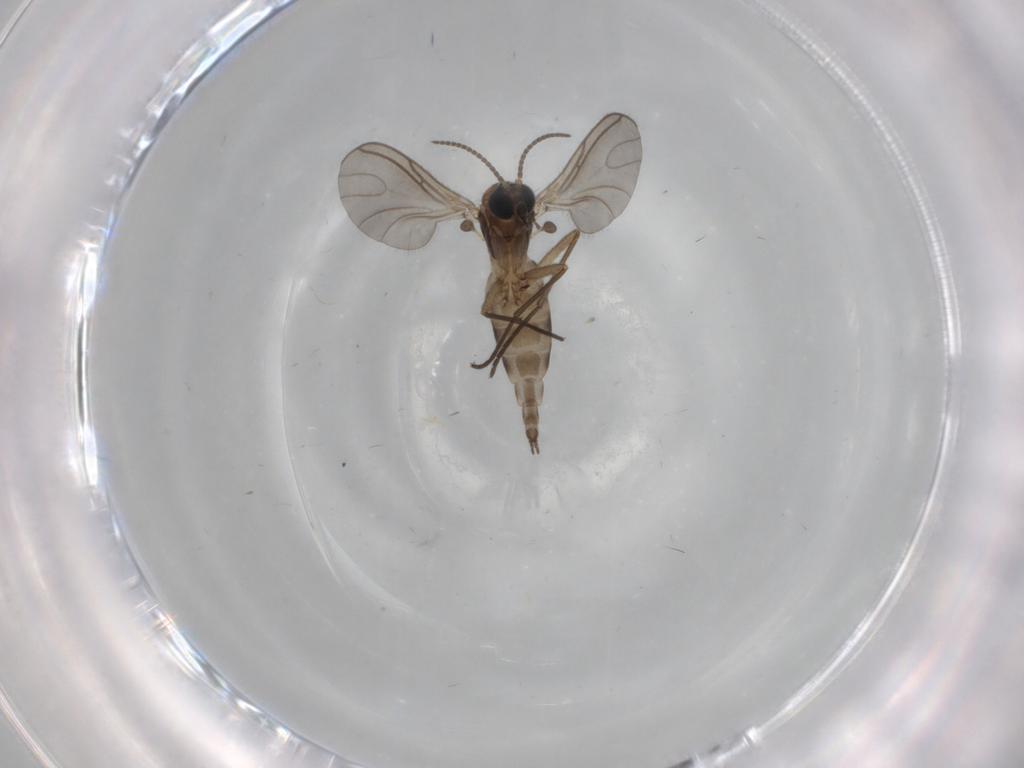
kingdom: Animalia
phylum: Arthropoda
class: Insecta
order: Diptera
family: Sciaridae
